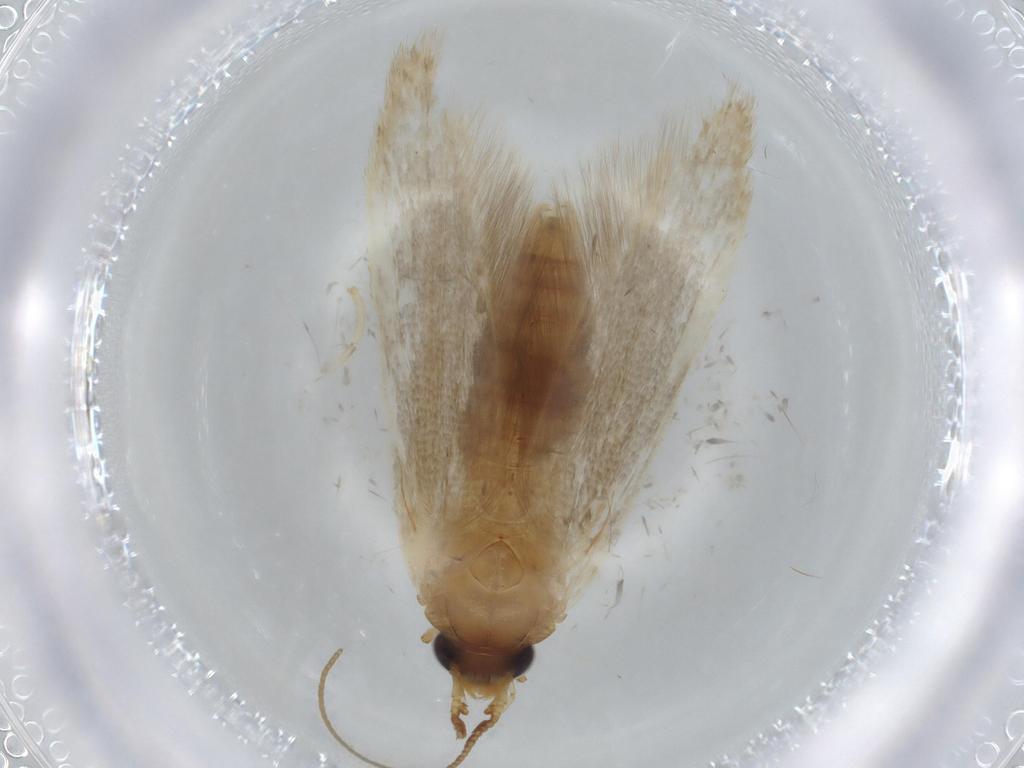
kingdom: Animalia
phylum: Arthropoda
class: Insecta
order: Lepidoptera
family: Coleophoridae
